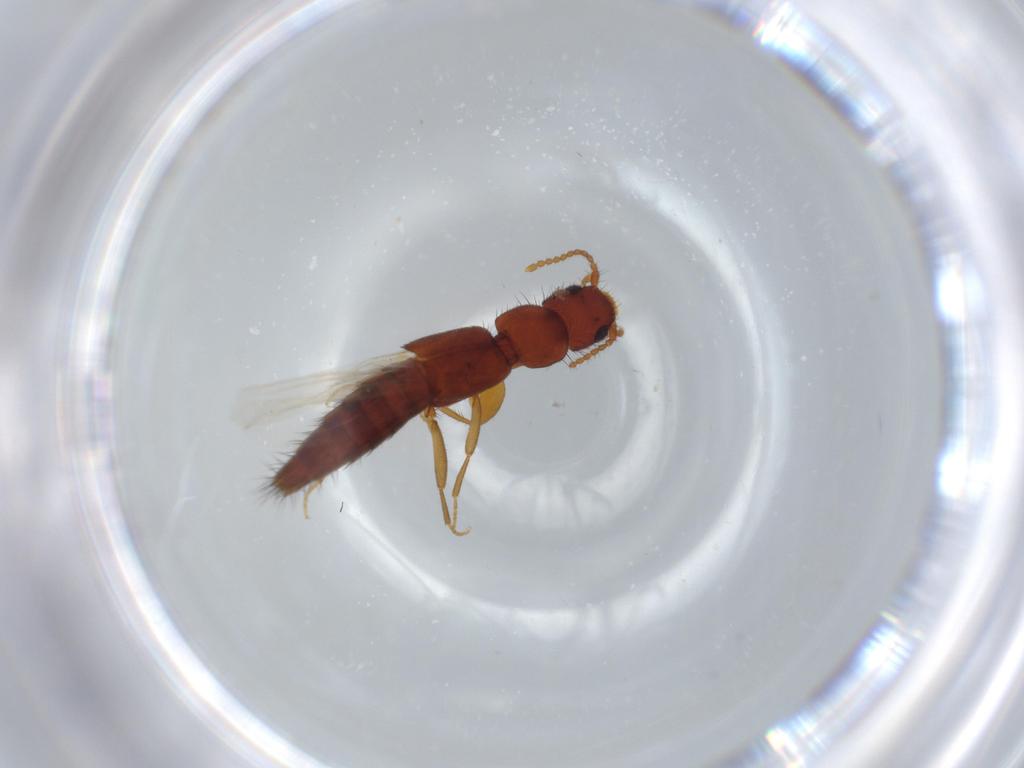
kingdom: Animalia
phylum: Arthropoda
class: Insecta
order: Coleoptera
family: Staphylinidae
